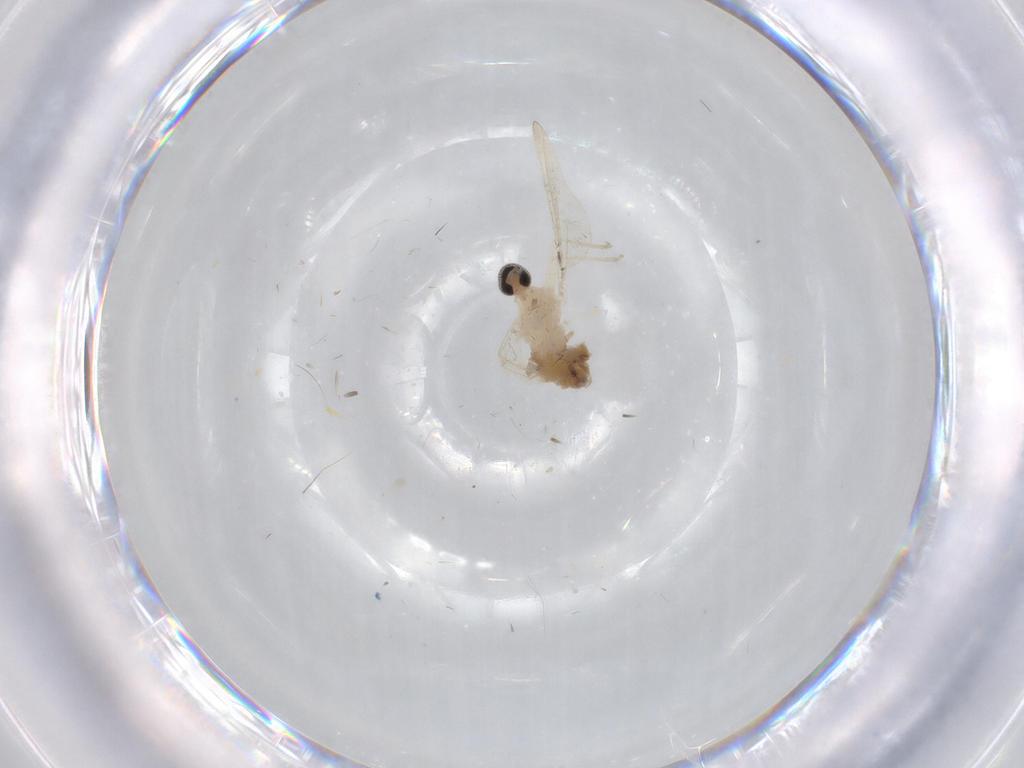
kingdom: Animalia
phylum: Arthropoda
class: Insecta
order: Diptera
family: Cecidomyiidae
